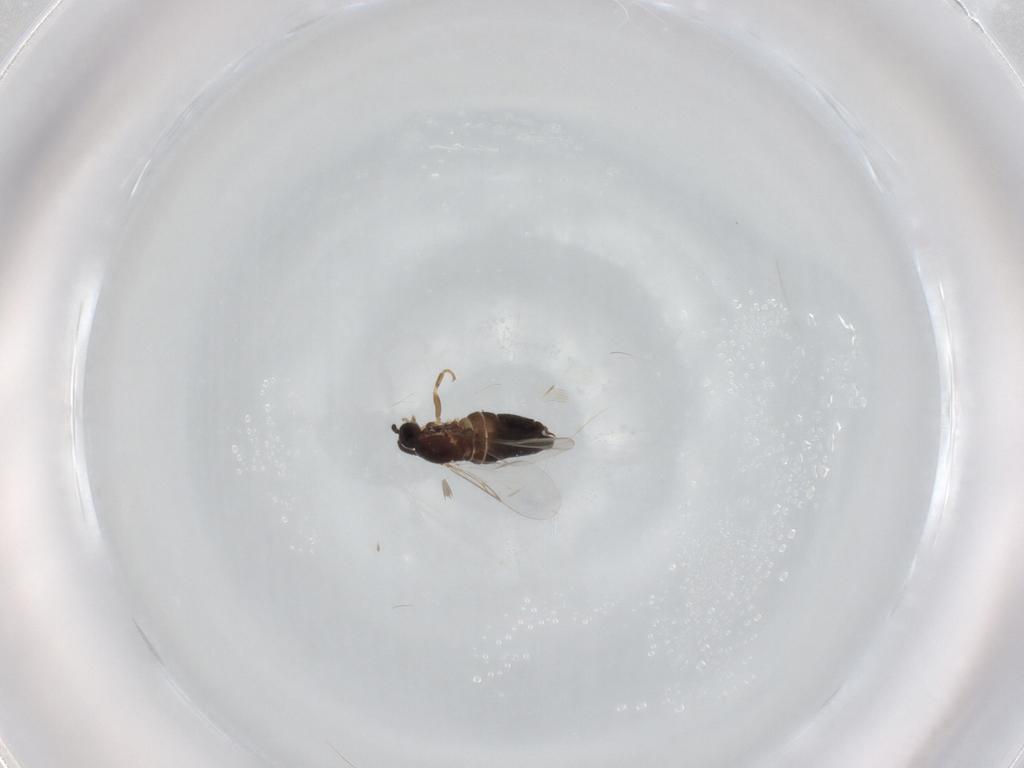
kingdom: Animalia
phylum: Arthropoda
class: Insecta
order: Diptera
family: Scatopsidae
